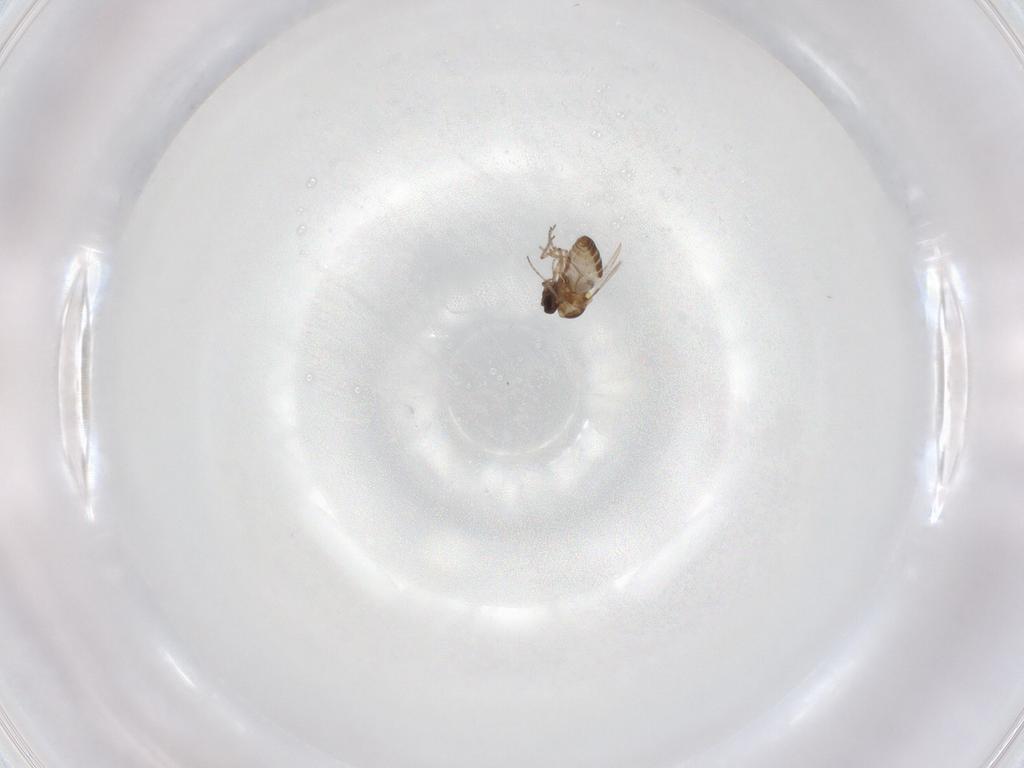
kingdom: Animalia
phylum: Arthropoda
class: Insecta
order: Diptera
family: Ceratopogonidae
